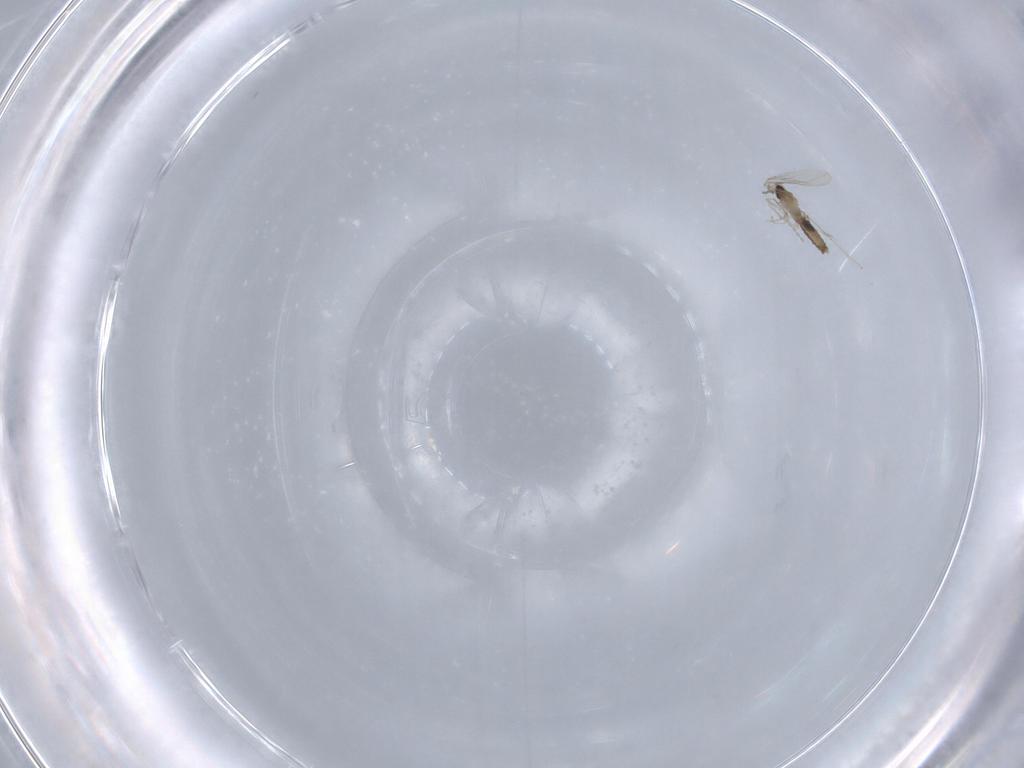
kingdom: Animalia
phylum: Arthropoda
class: Insecta
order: Diptera
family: Cecidomyiidae
